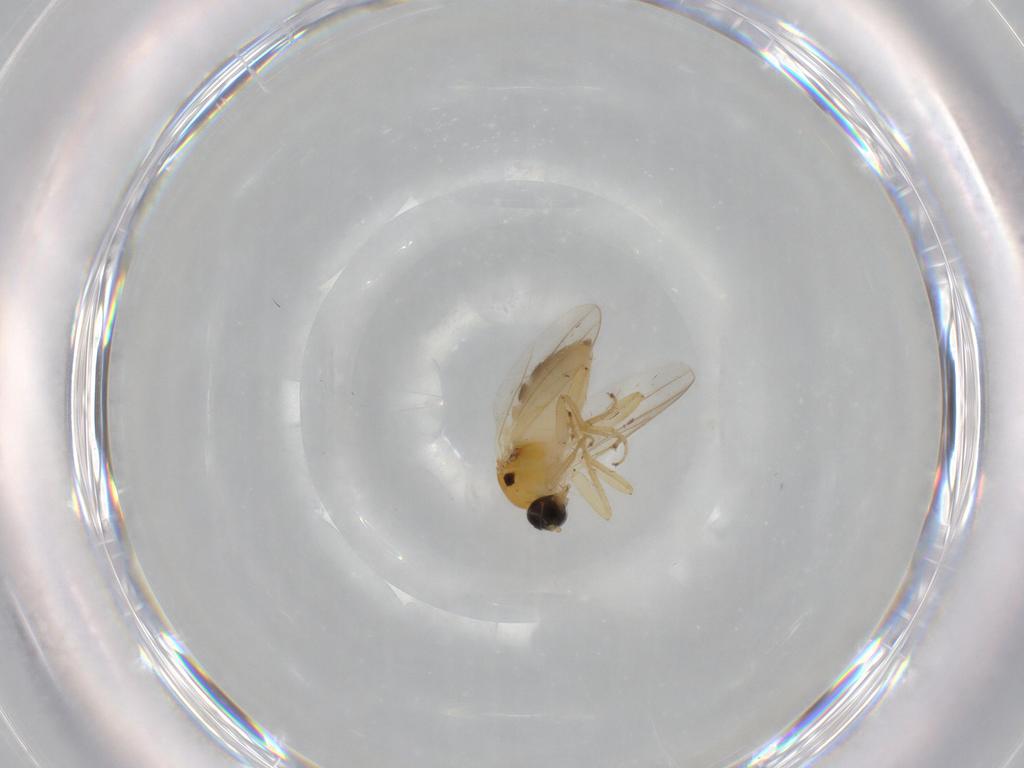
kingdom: Animalia
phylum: Arthropoda
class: Insecta
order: Diptera
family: Hybotidae
